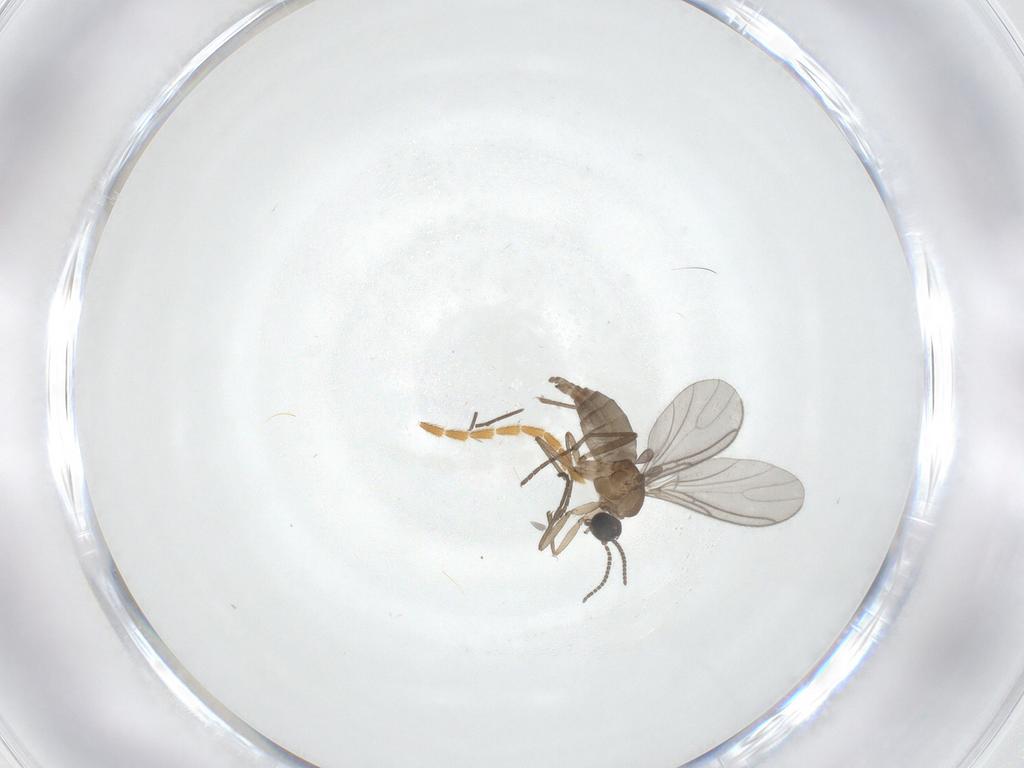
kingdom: Animalia
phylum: Arthropoda
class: Insecta
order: Diptera
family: Sciaridae
